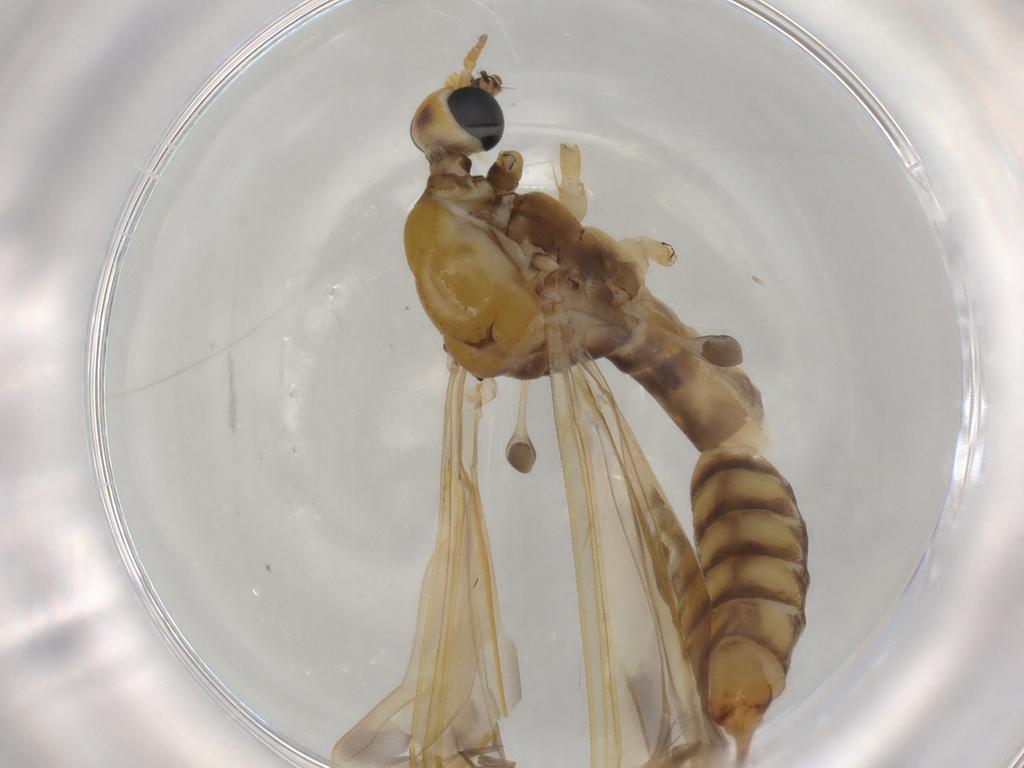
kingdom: Animalia
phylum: Arthropoda
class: Insecta
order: Diptera
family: Limoniidae
